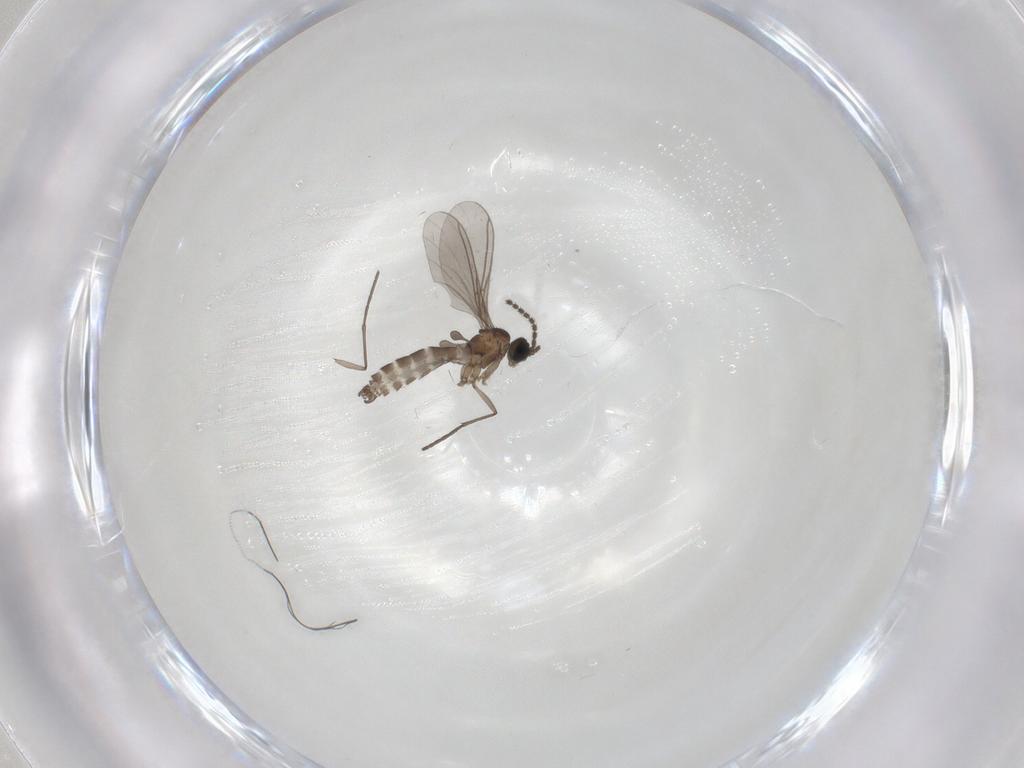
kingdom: Animalia
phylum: Arthropoda
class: Insecta
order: Diptera
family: Sciaridae
